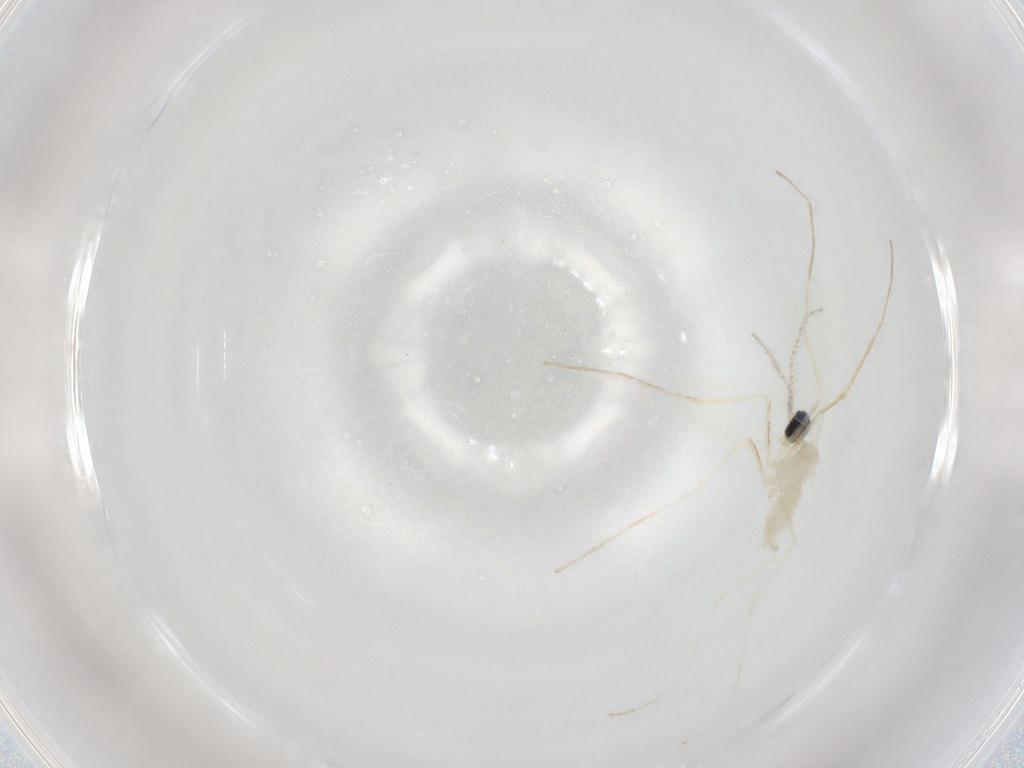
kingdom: Animalia
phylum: Arthropoda
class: Insecta
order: Diptera
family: Cecidomyiidae
